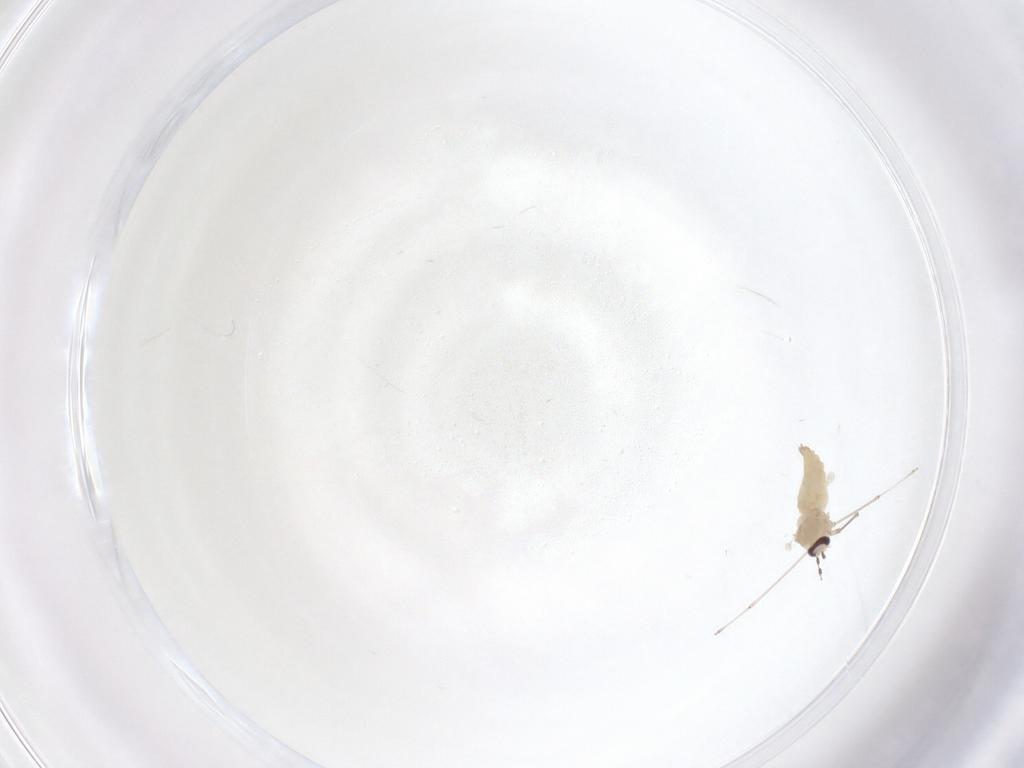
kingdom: Animalia
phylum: Arthropoda
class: Insecta
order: Diptera
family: Cecidomyiidae
